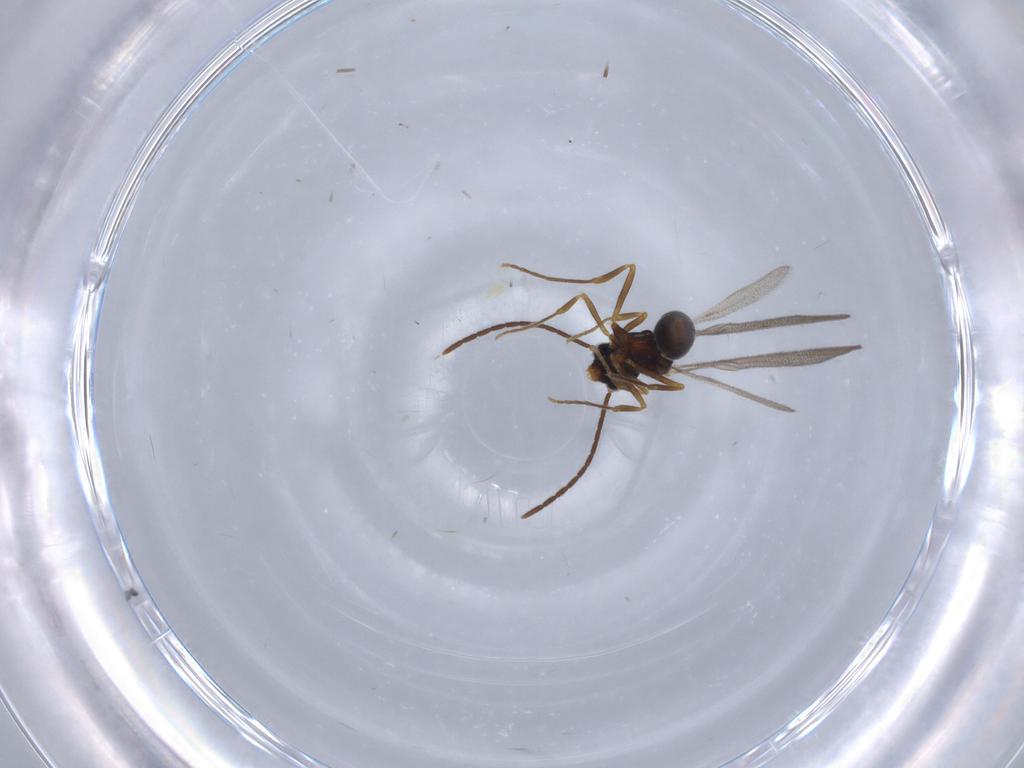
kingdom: Animalia
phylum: Arthropoda
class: Insecta
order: Hymenoptera
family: Formicidae
